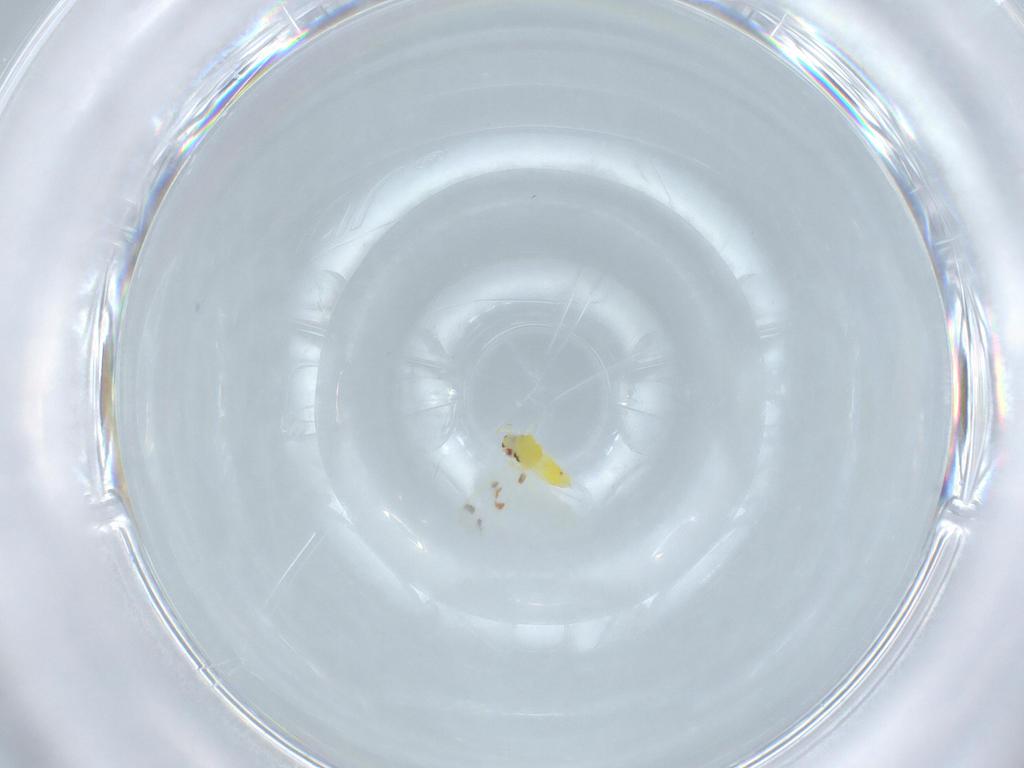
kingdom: Animalia
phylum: Arthropoda
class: Insecta
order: Hemiptera
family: Aleyrodidae
